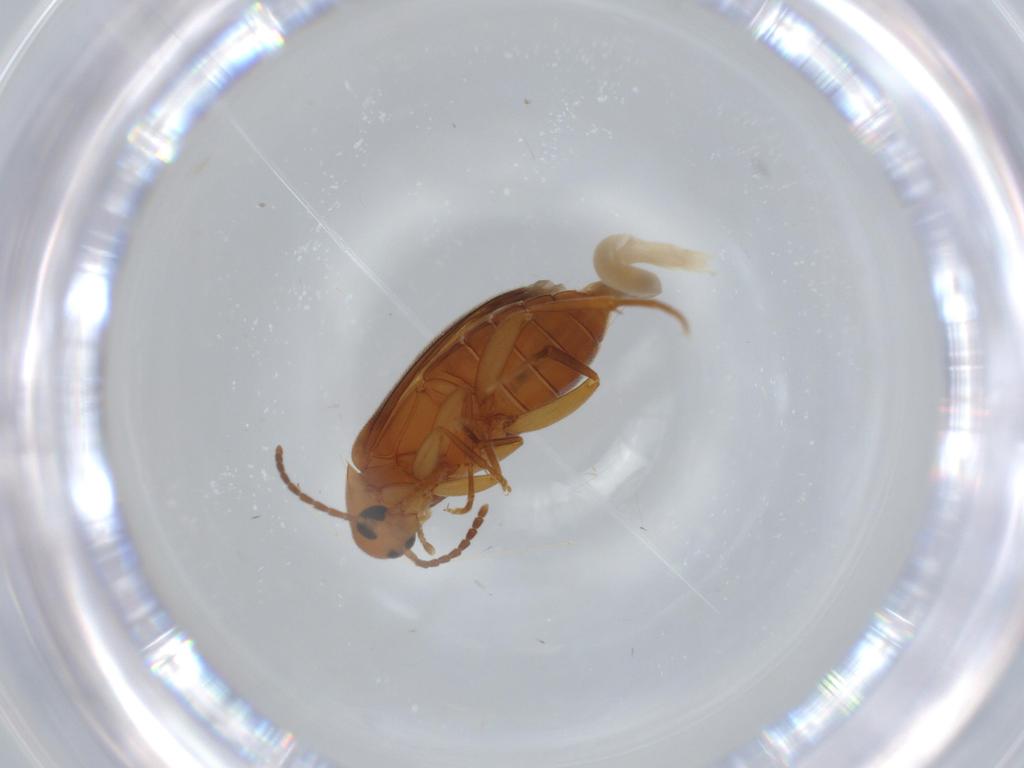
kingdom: Animalia
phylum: Arthropoda
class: Insecta
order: Coleoptera
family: Scraptiidae
